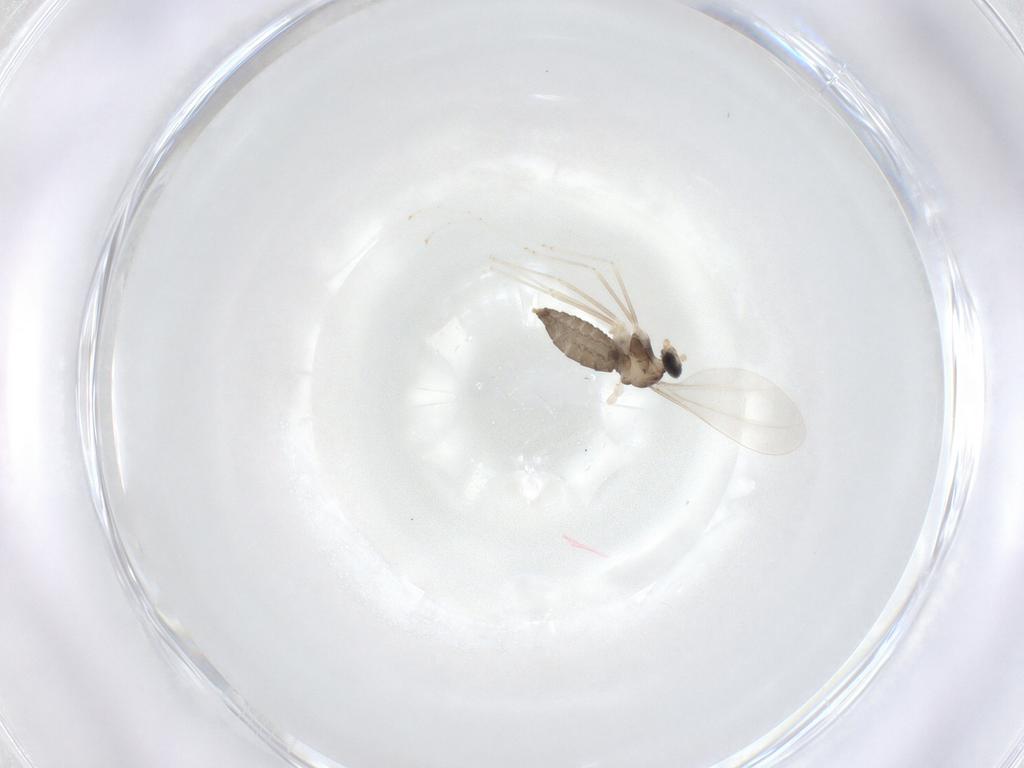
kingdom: Animalia
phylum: Arthropoda
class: Insecta
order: Diptera
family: Cecidomyiidae
